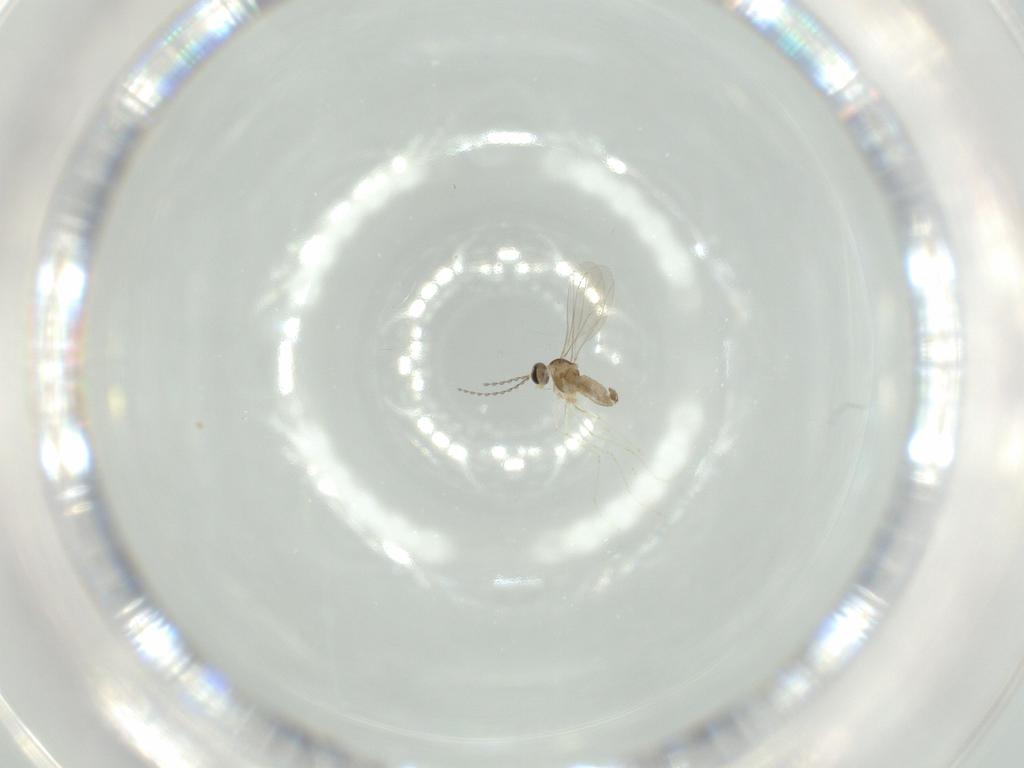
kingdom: Animalia
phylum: Arthropoda
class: Insecta
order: Diptera
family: Cecidomyiidae
